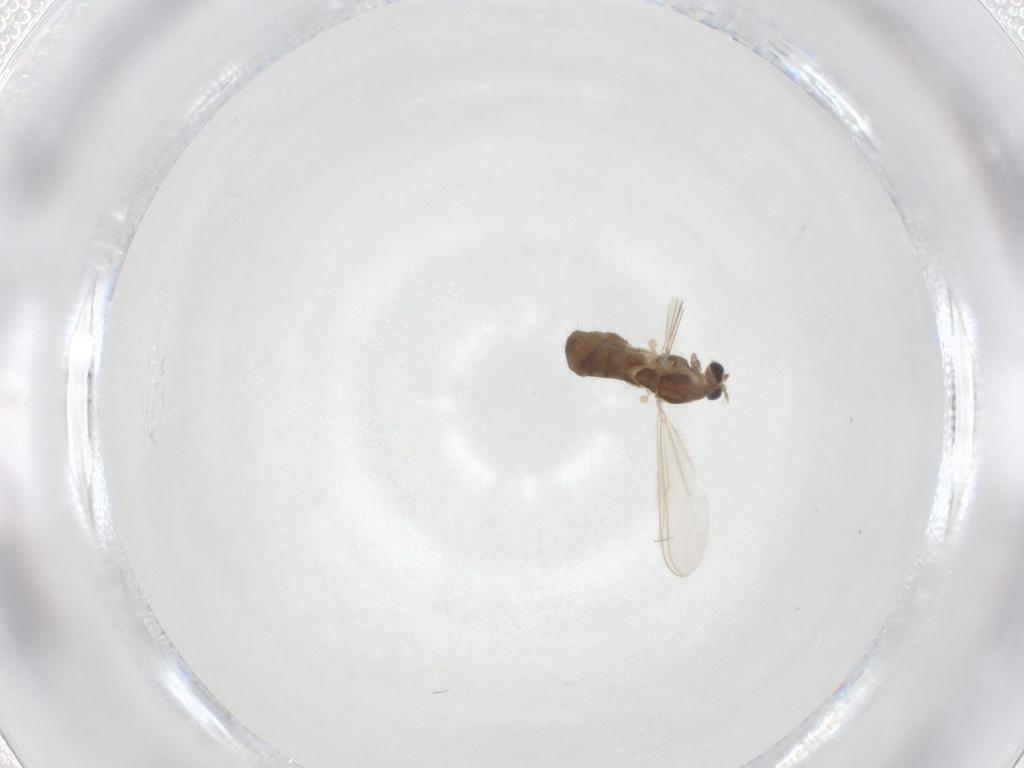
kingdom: Animalia
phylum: Arthropoda
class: Insecta
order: Diptera
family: Chironomidae
